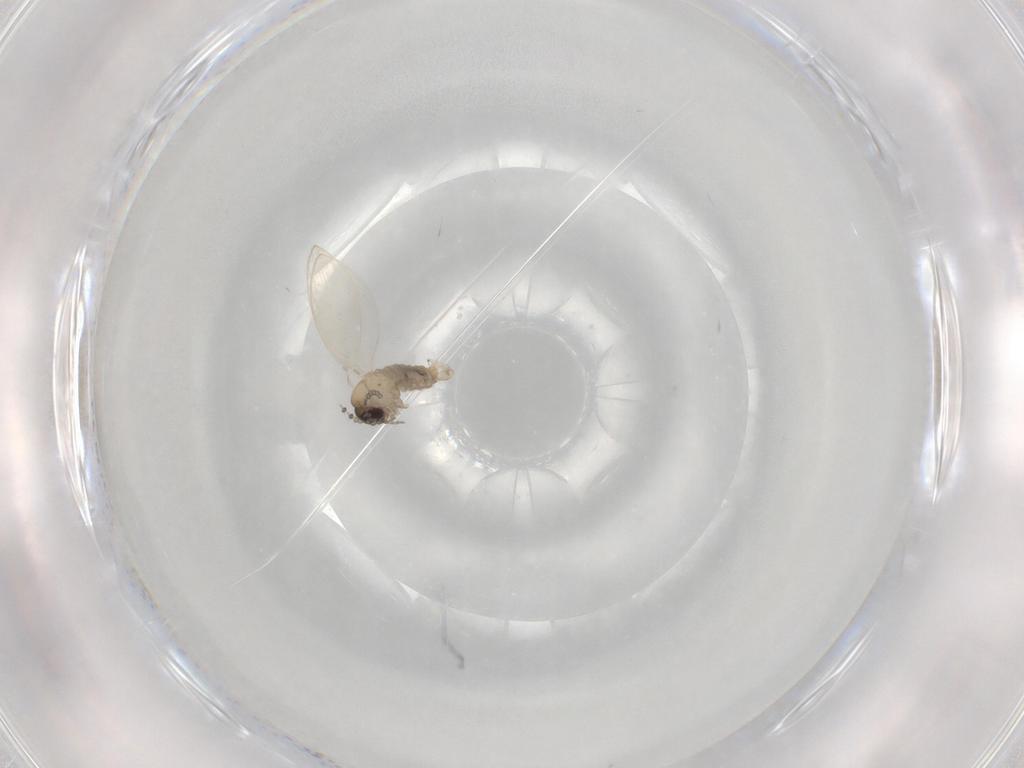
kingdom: Animalia
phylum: Arthropoda
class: Insecta
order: Diptera
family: Psychodidae
